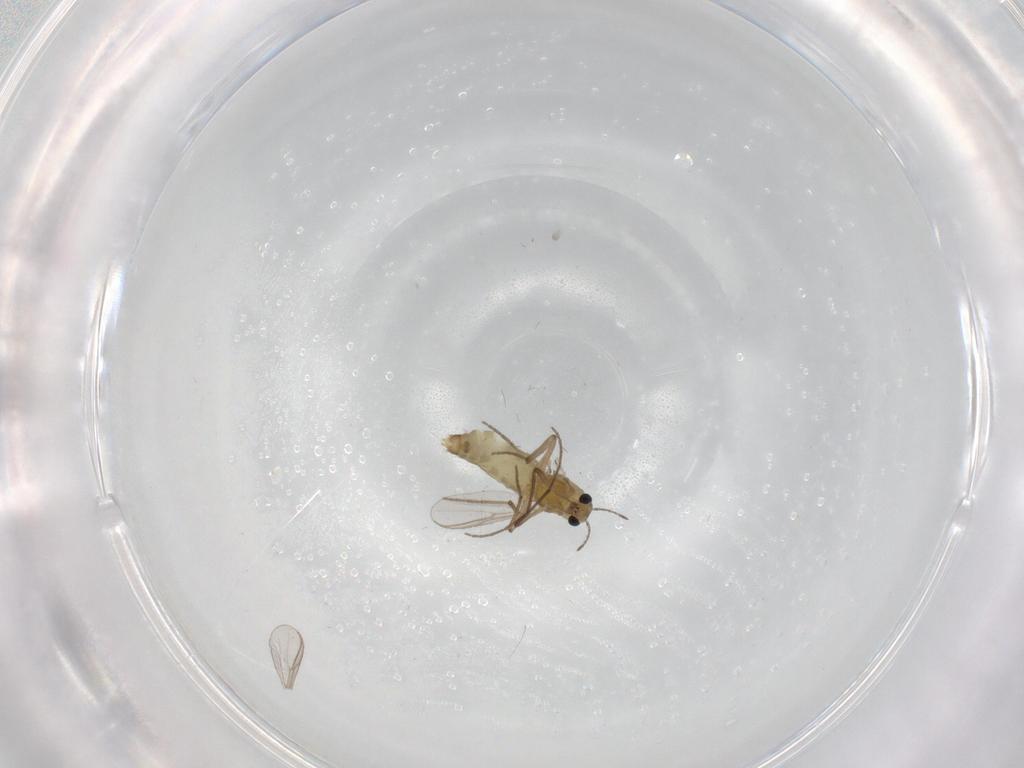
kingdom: Animalia
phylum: Arthropoda
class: Insecta
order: Diptera
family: Chironomidae
